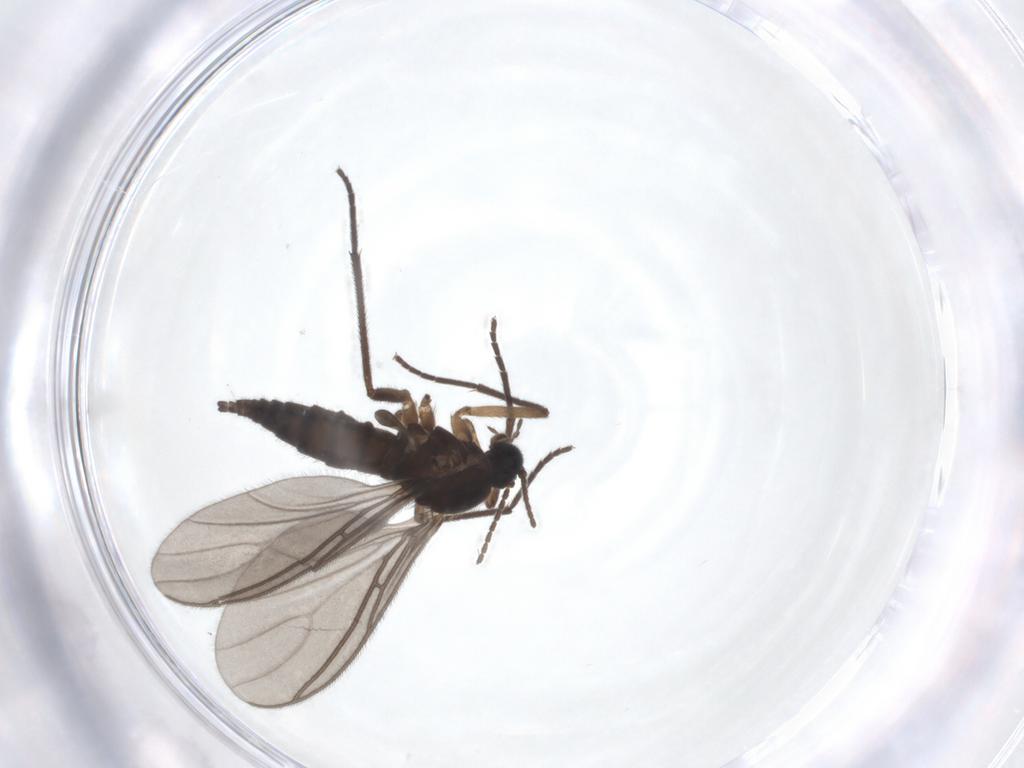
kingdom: Animalia
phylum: Arthropoda
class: Insecta
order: Diptera
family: Sciaridae
